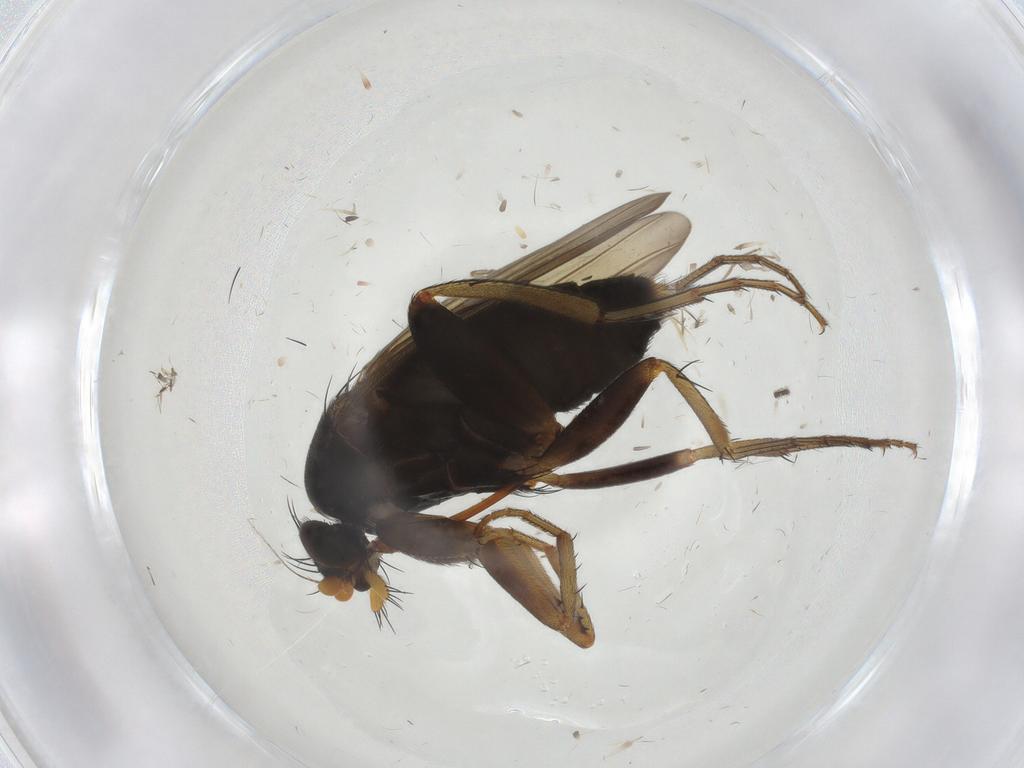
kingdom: Animalia
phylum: Arthropoda
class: Insecta
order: Diptera
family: Phoridae
